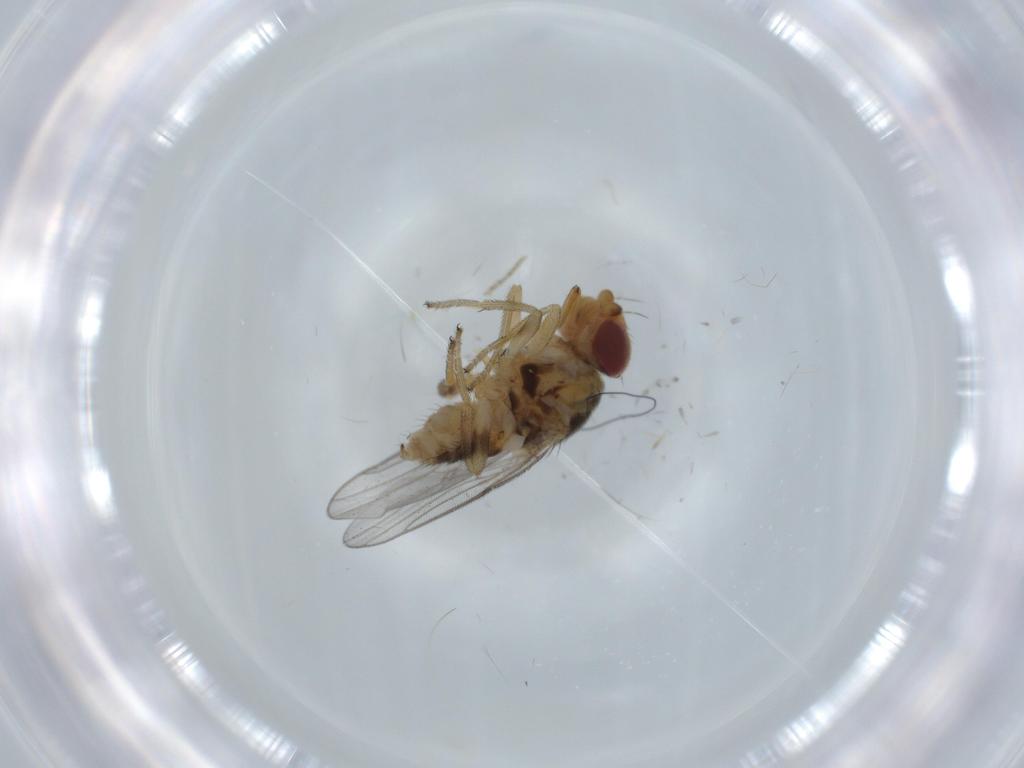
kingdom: Animalia
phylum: Arthropoda
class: Insecta
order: Diptera
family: Chloropidae
